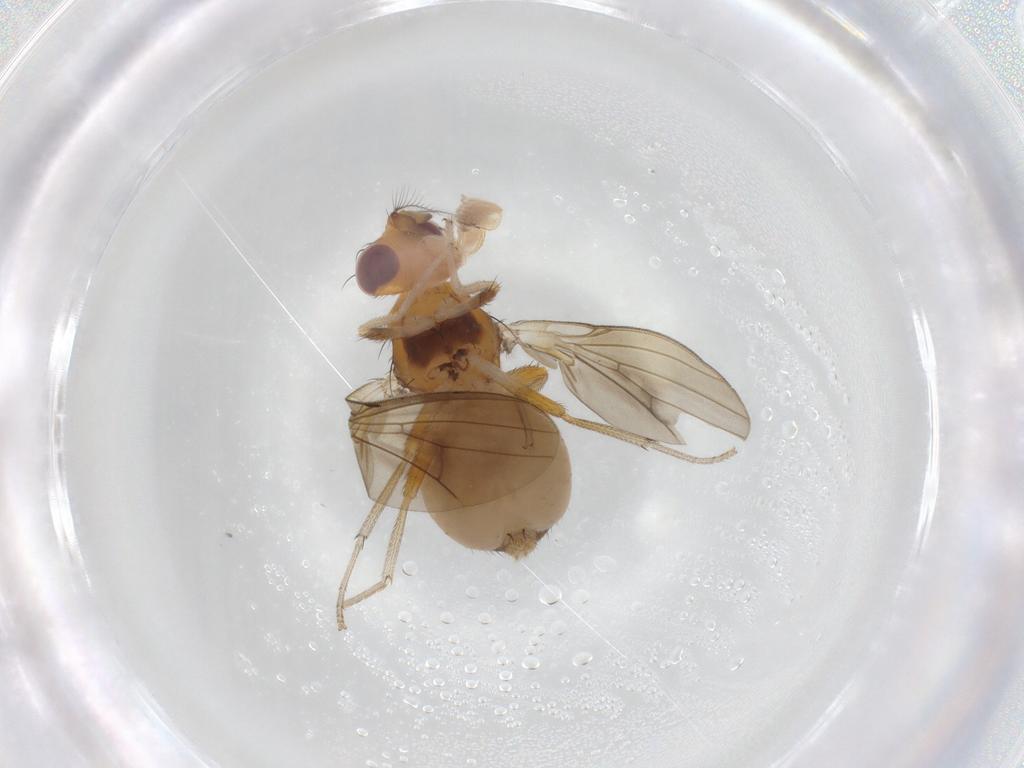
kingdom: Animalia
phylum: Arthropoda
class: Insecta
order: Diptera
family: Lauxaniidae
